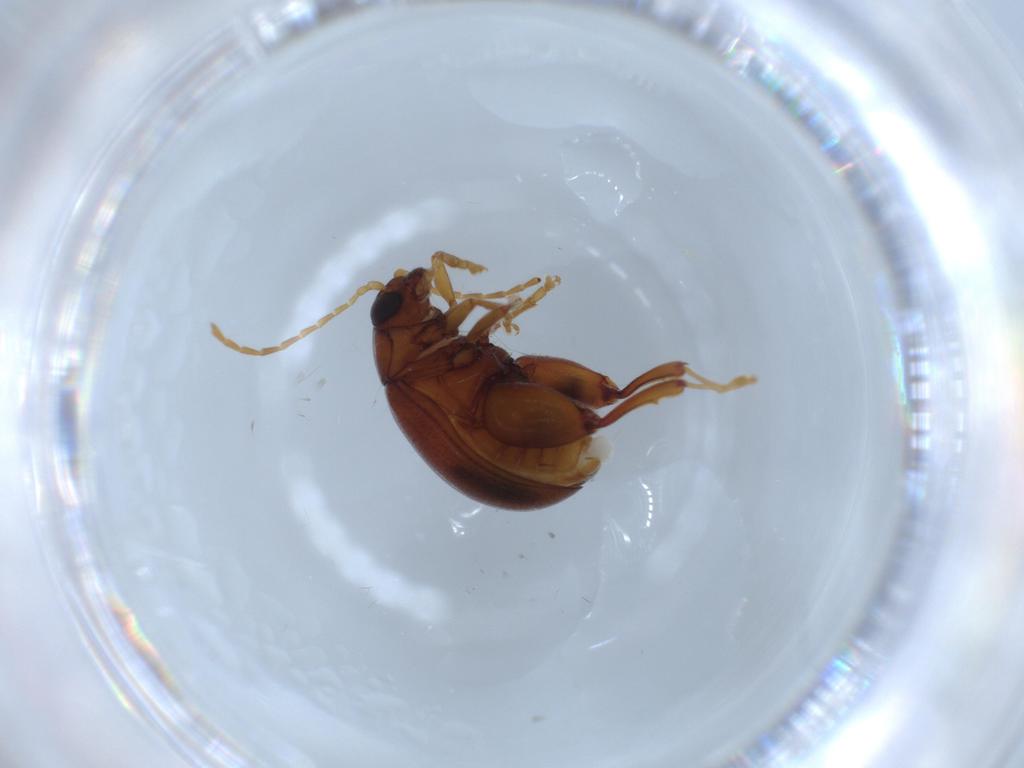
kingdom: Animalia
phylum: Arthropoda
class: Insecta
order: Coleoptera
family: Chrysomelidae
